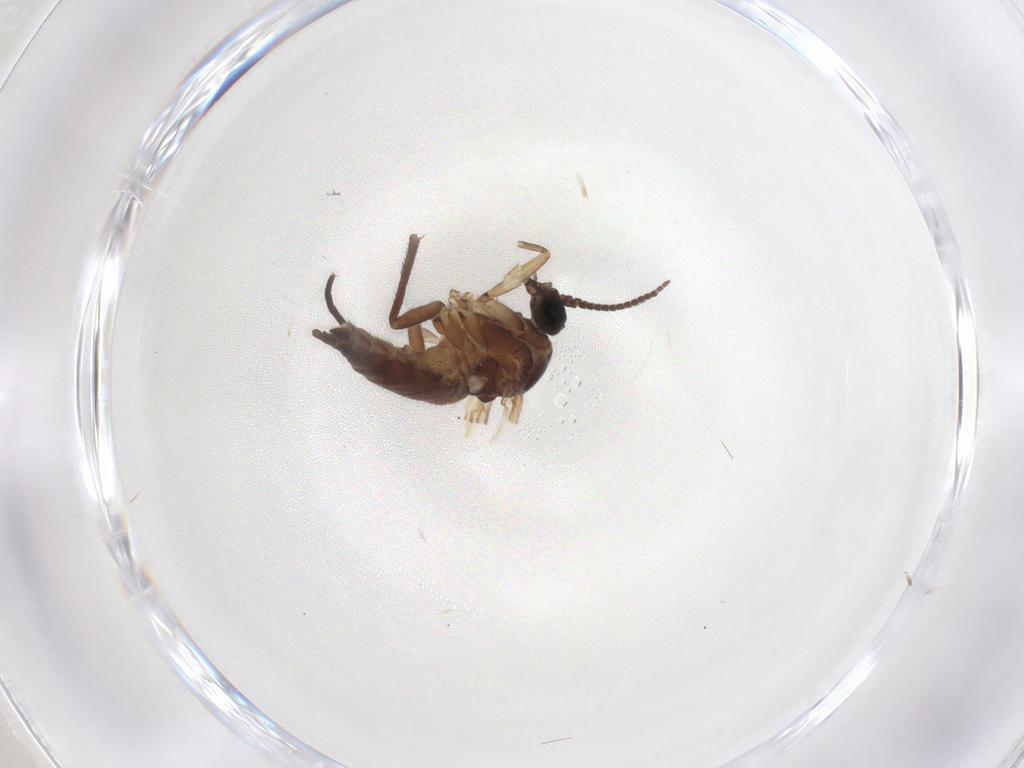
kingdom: Animalia
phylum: Arthropoda
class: Insecta
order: Diptera
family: Sciaridae
